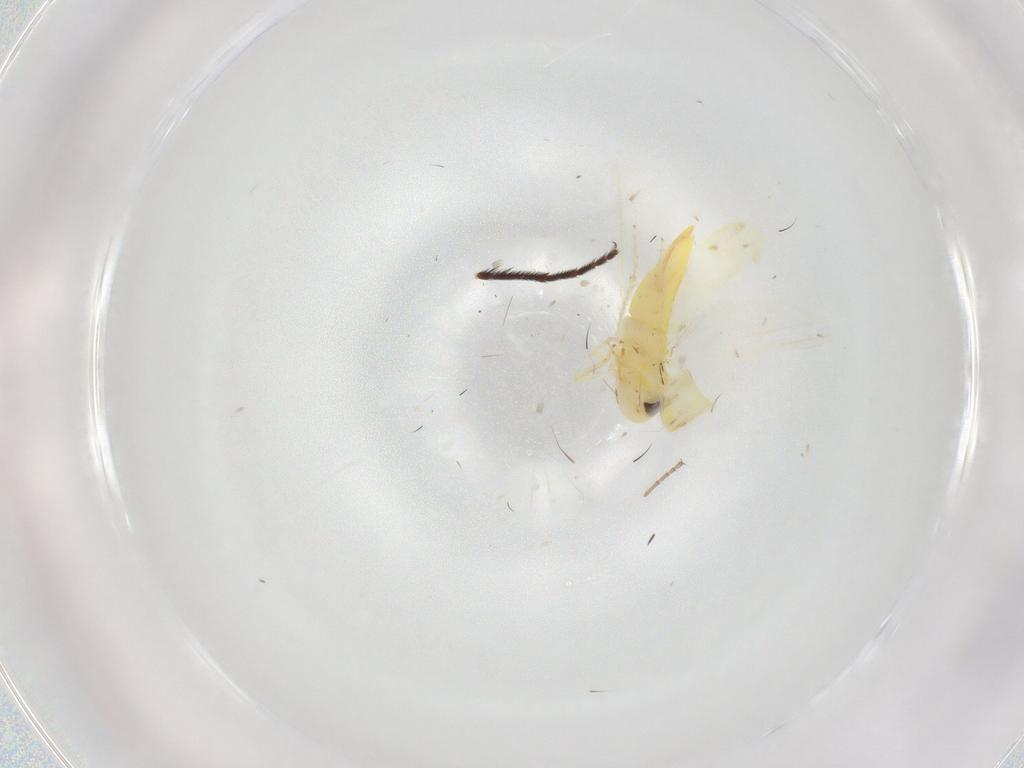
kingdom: Animalia
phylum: Arthropoda
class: Insecta
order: Hemiptera
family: Cicadellidae
